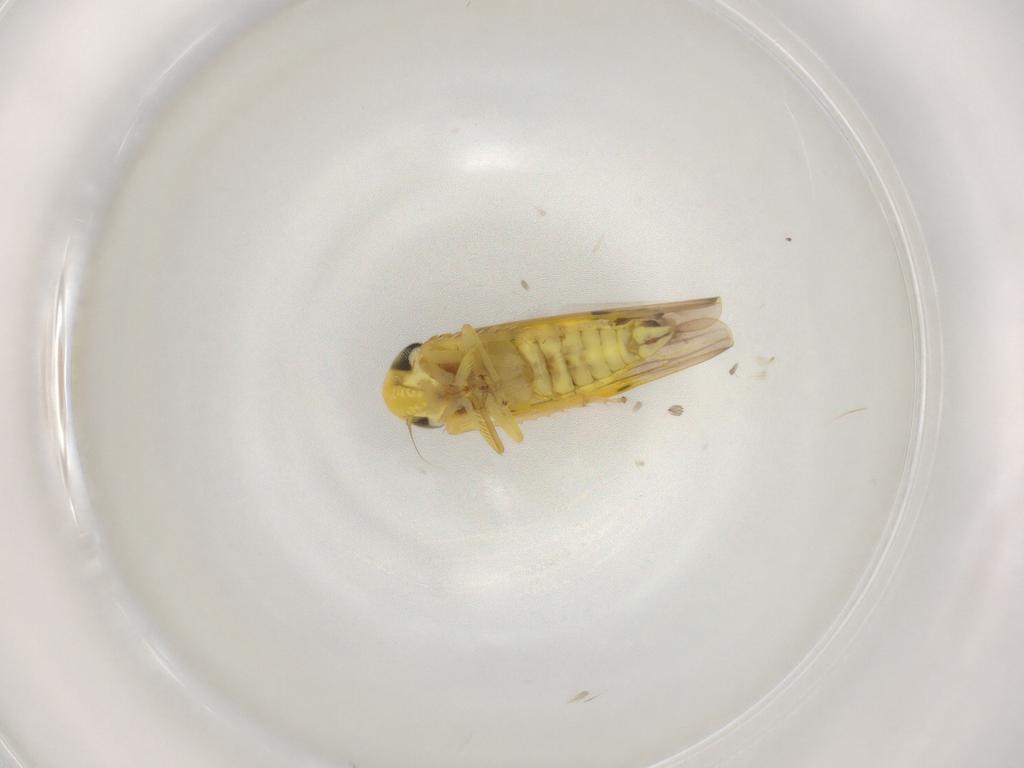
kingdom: Animalia
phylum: Arthropoda
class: Insecta
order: Hemiptera
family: Cicadellidae
